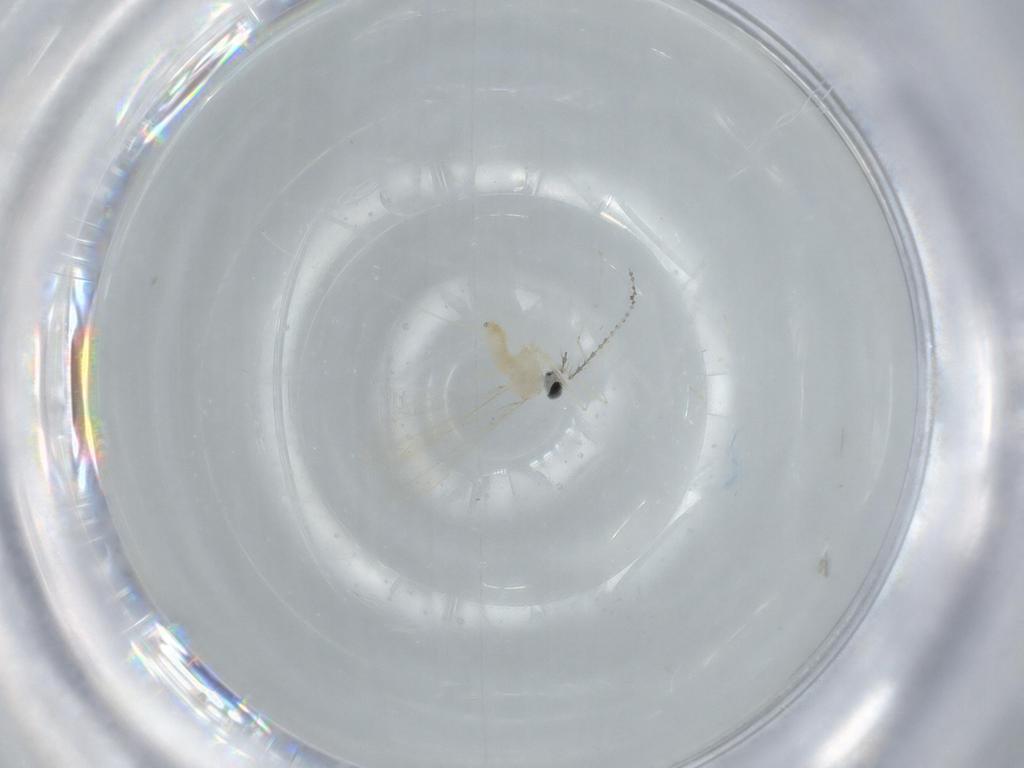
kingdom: Animalia
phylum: Arthropoda
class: Insecta
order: Diptera
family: Cecidomyiidae
